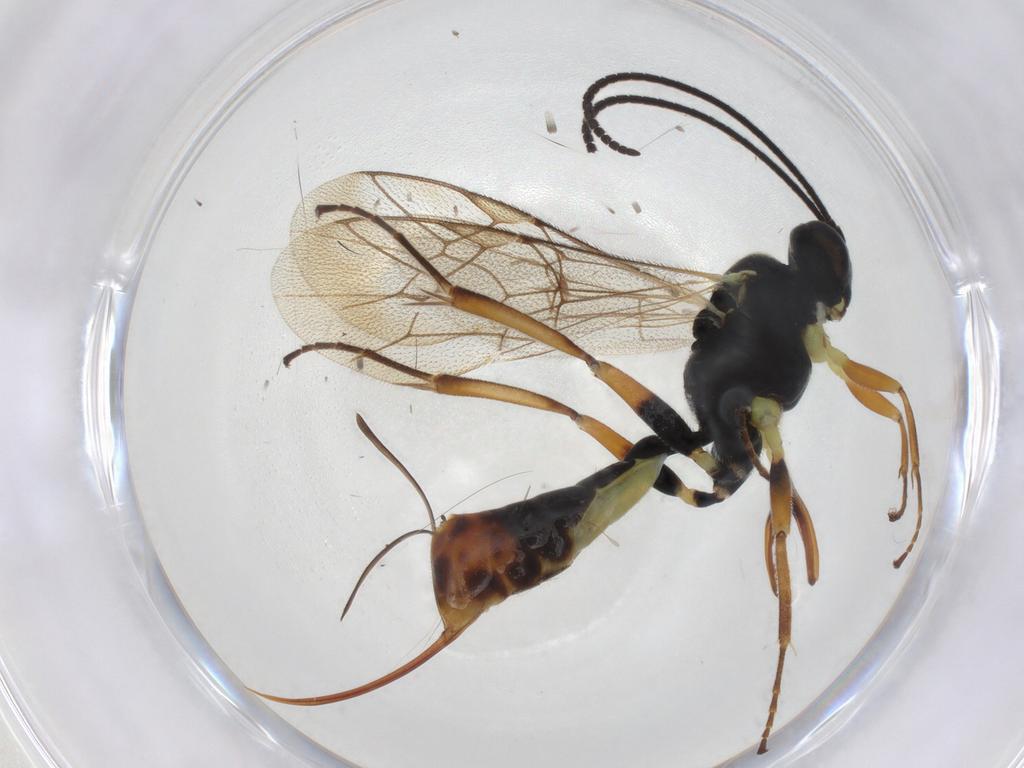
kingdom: Animalia
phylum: Arthropoda
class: Insecta
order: Hymenoptera
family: Ichneumonidae
